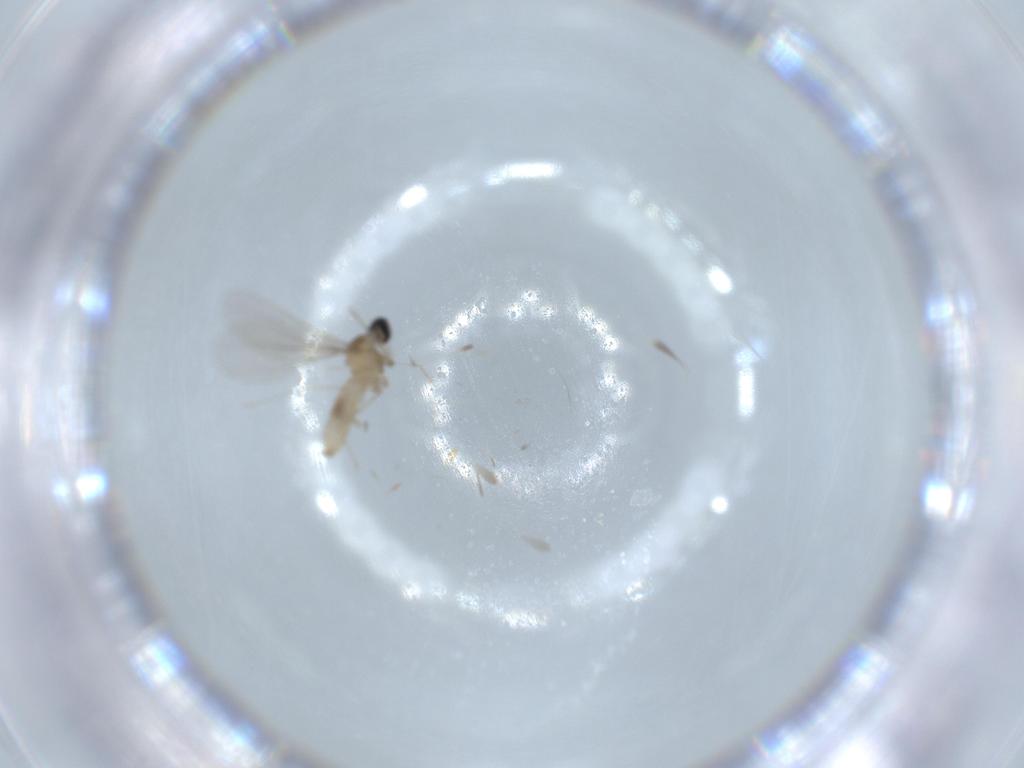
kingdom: Animalia
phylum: Arthropoda
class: Insecta
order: Diptera
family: Cecidomyiidae
